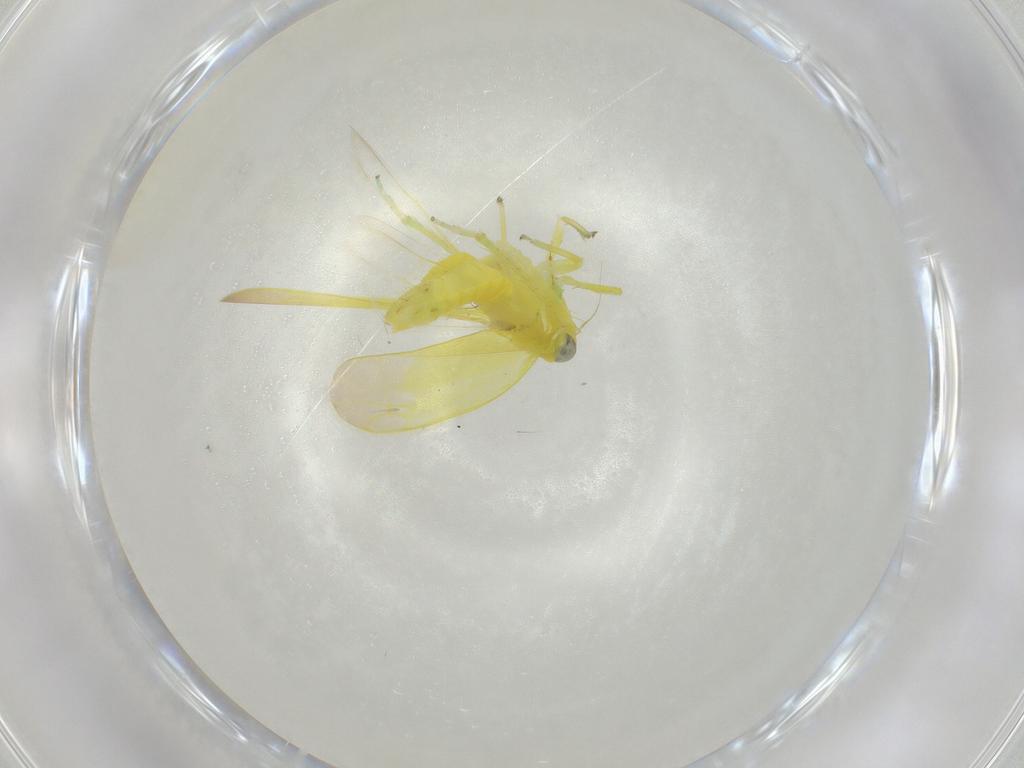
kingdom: Animalia
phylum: Arthropoda
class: Insecta
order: Hemiptera
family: Cicadellidae
